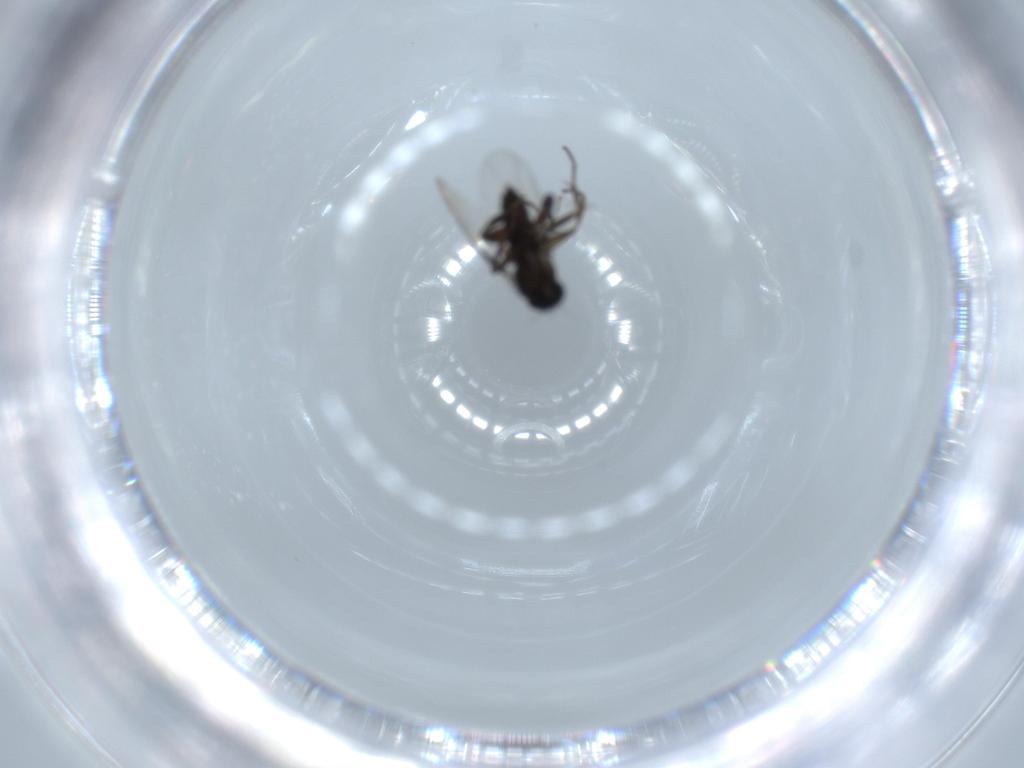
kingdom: Animalia
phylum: Arthropoda
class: Insecta
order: Diptera
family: Phoridae
